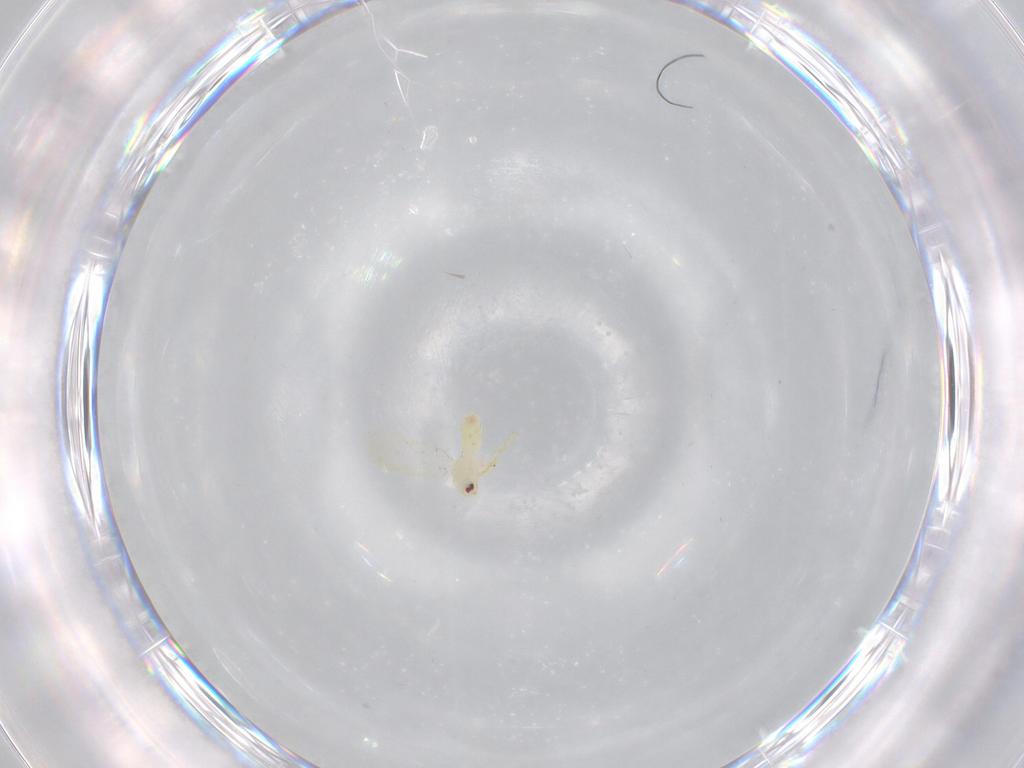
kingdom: Animalia
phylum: Arthropoda
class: Insecta
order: Hemiptera
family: Aleyrodidae
